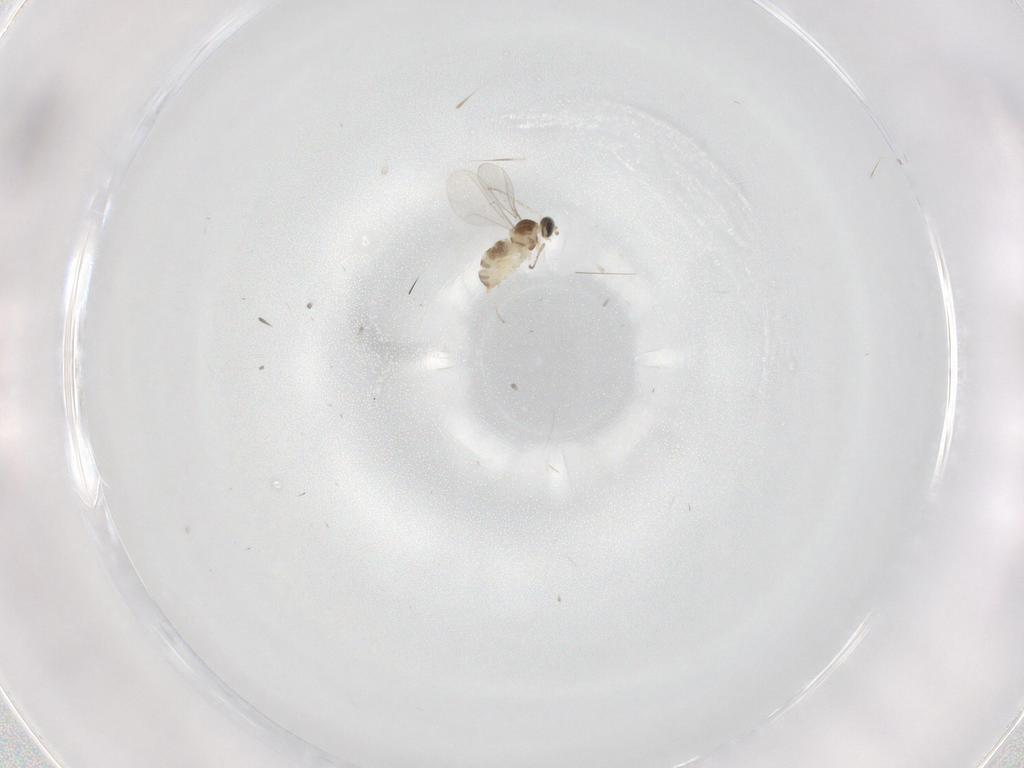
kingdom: Animalia
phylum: Arthropoda
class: Insecta
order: Diptera
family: Cecidomyiidae
